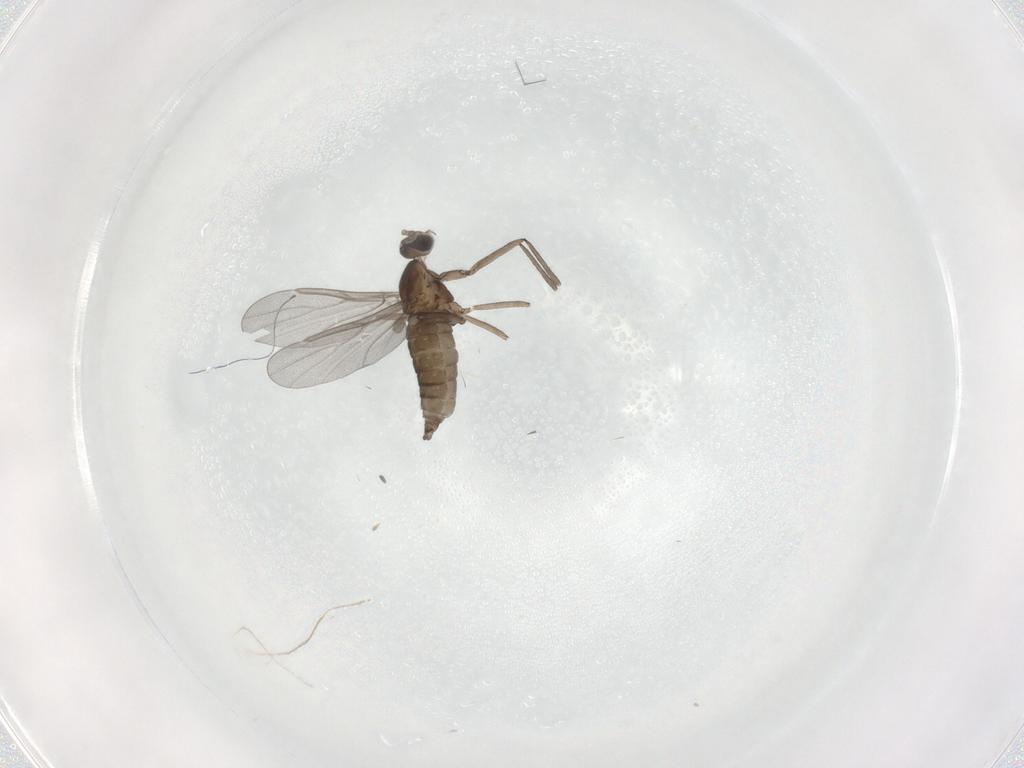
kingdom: Animalia
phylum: Arthropoda
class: Insecta
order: Diptera
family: Cecidomyiidae
